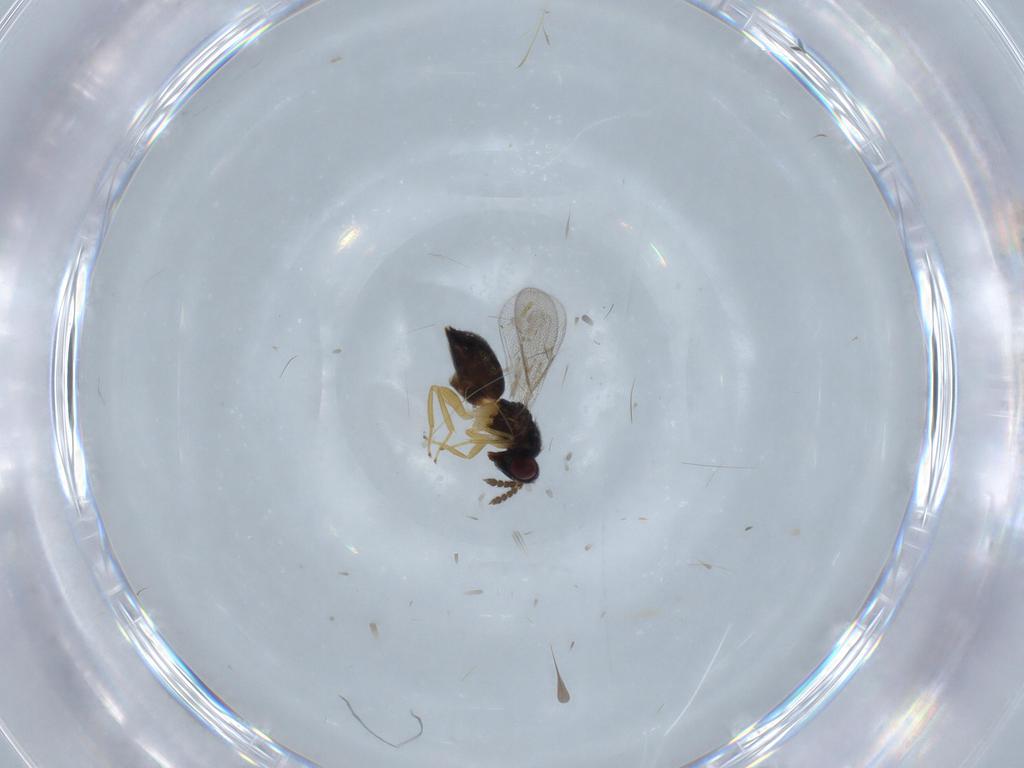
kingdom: Animalia
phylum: Arthropoda
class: Insecta
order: Hymenoptera
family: Eulophidae
